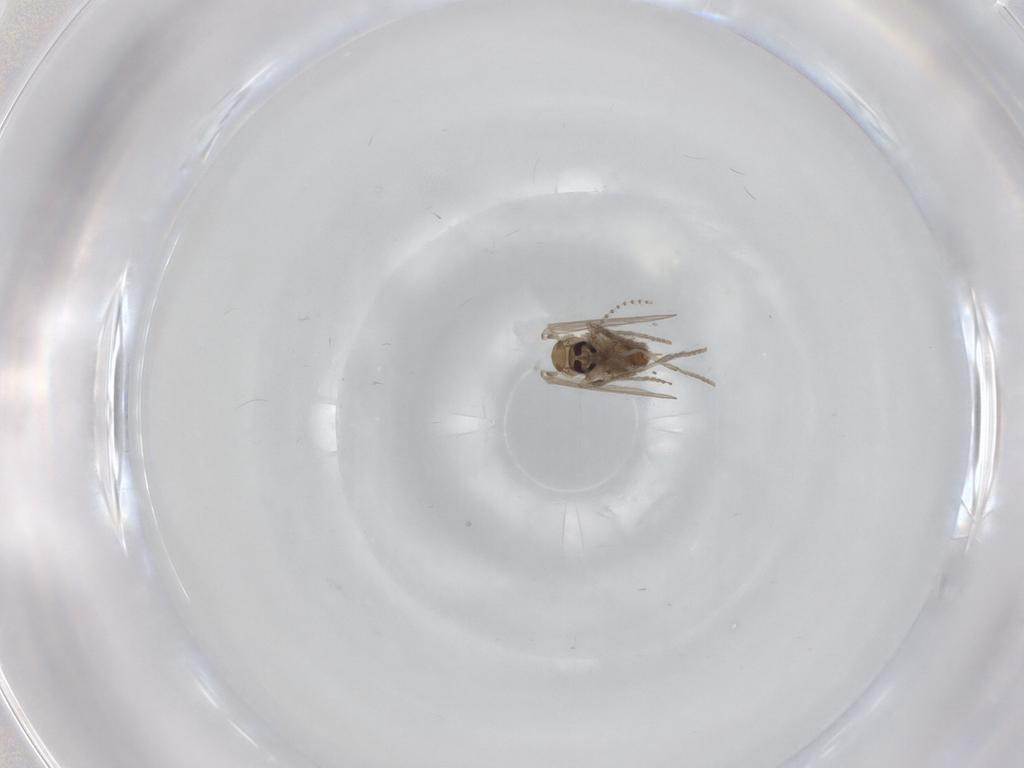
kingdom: Animalia
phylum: Arthropoda
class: Insecta
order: Diptera
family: Psychodidae
